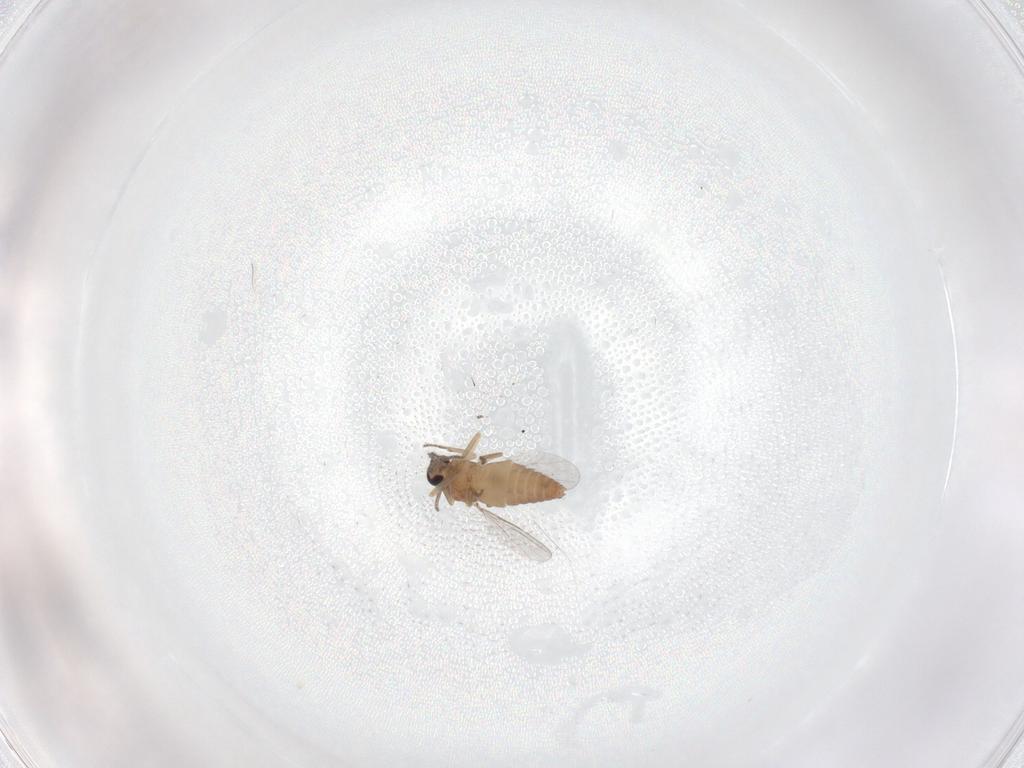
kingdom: Animalia
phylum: Arthropoda
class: Insecta
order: Diptera
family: Ceratopogonidae
